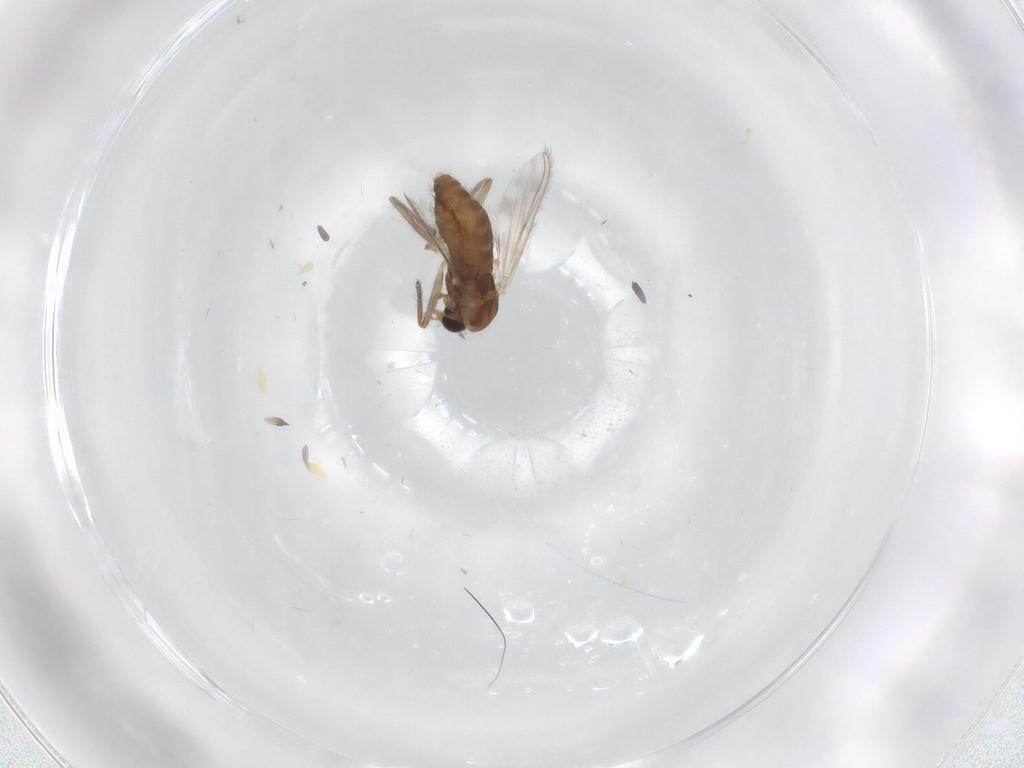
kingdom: Animalia
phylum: Arthropoda
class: Insecta
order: Diptera
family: Chironomidae
